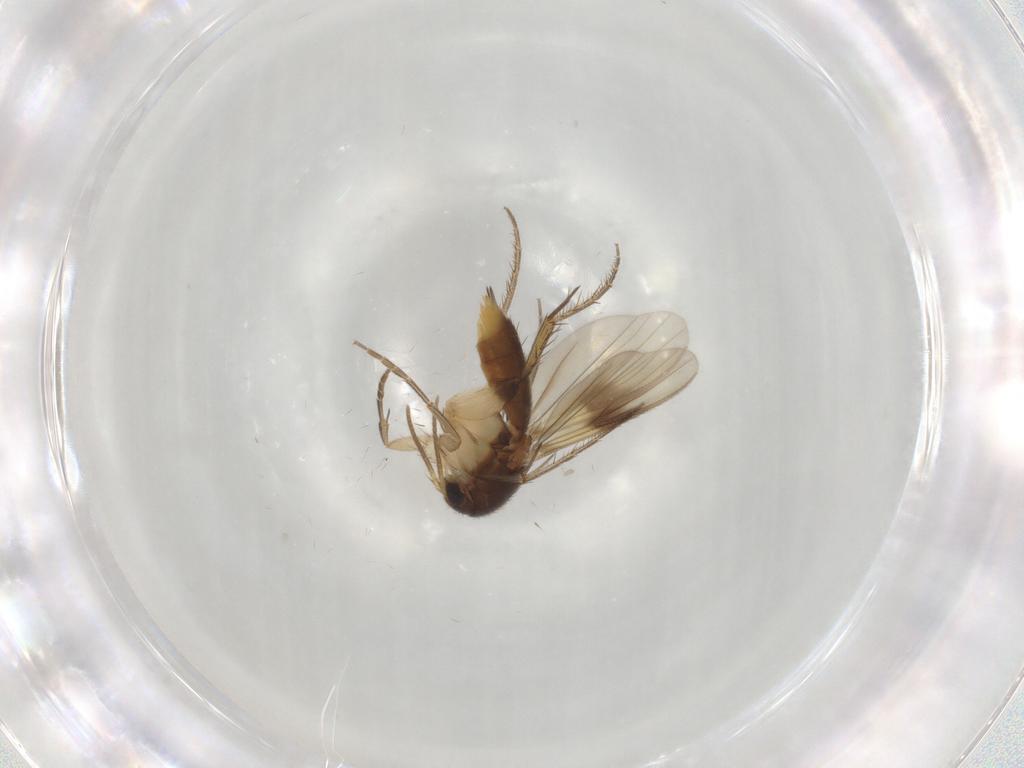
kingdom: Animalia
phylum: Arthropoda
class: Insecta
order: Diptera
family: Mycetophilidae
